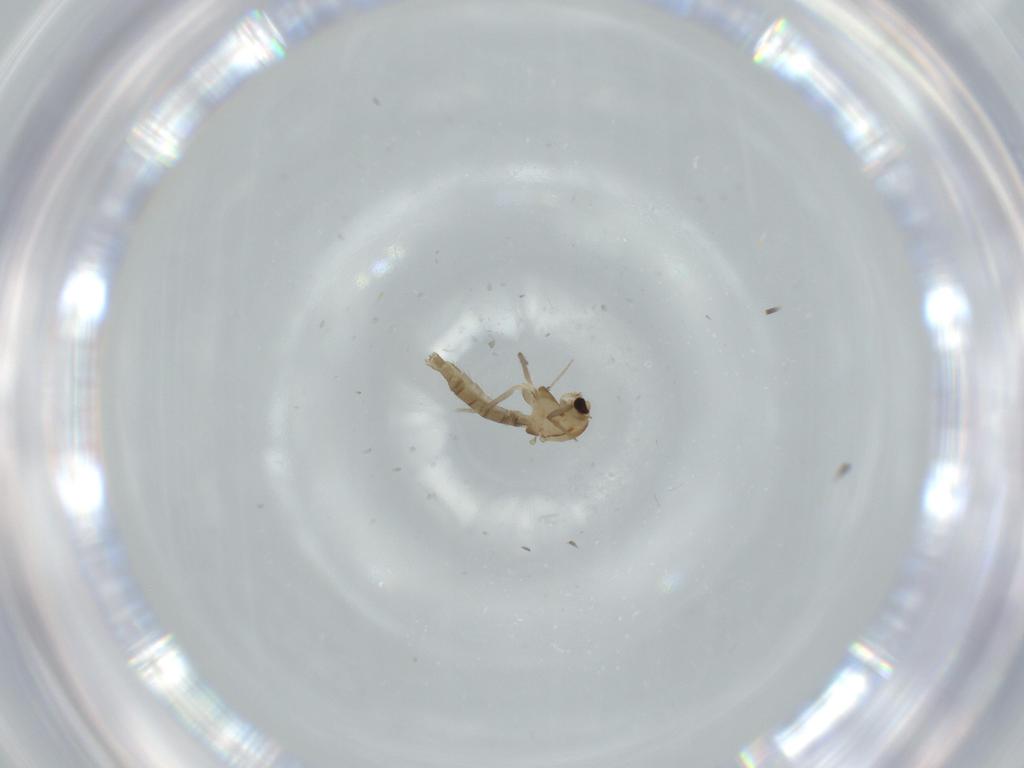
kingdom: Animalia
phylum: Arthropoda
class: Insecta
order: Diptera
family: Chironomidae
